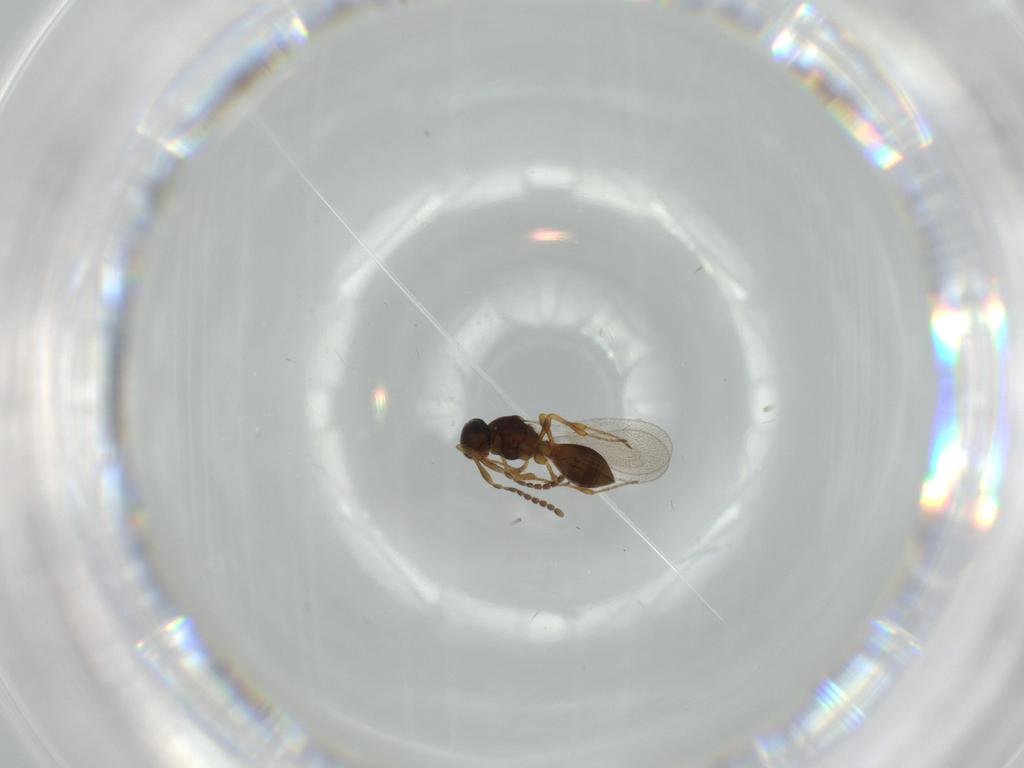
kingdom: Animalia
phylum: Arthropoda
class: Insecta
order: Diptera
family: Mythicomyiidae
